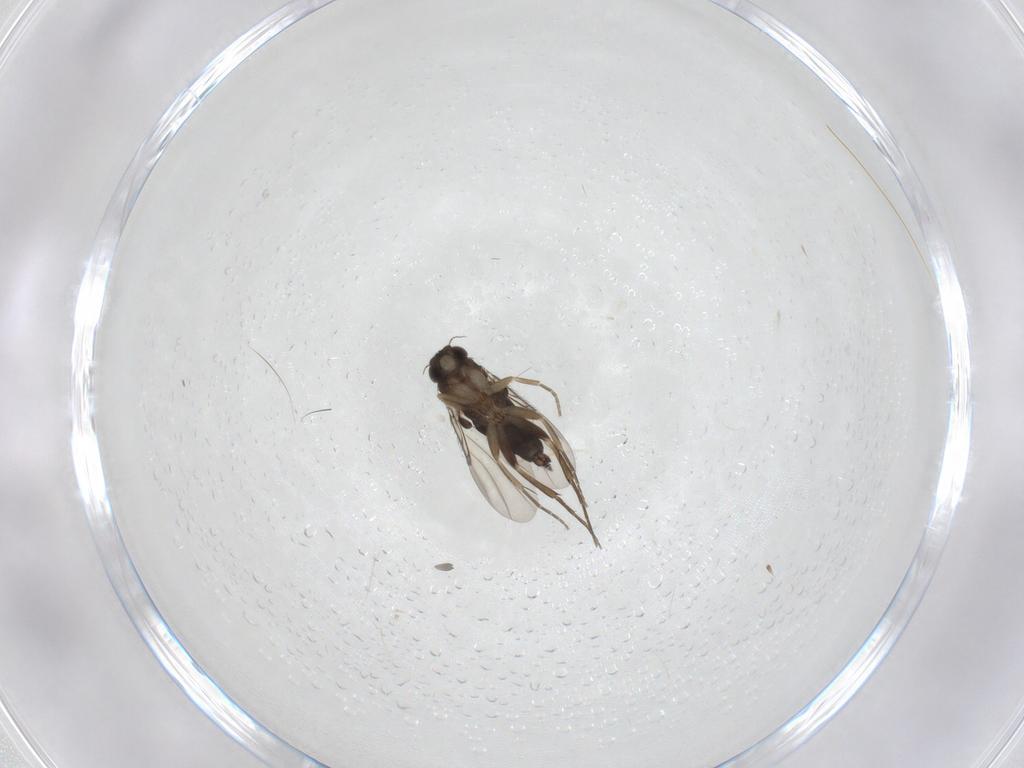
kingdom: Animalia
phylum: Arthropoda
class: Insecta
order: Diptera
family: Phoridae
